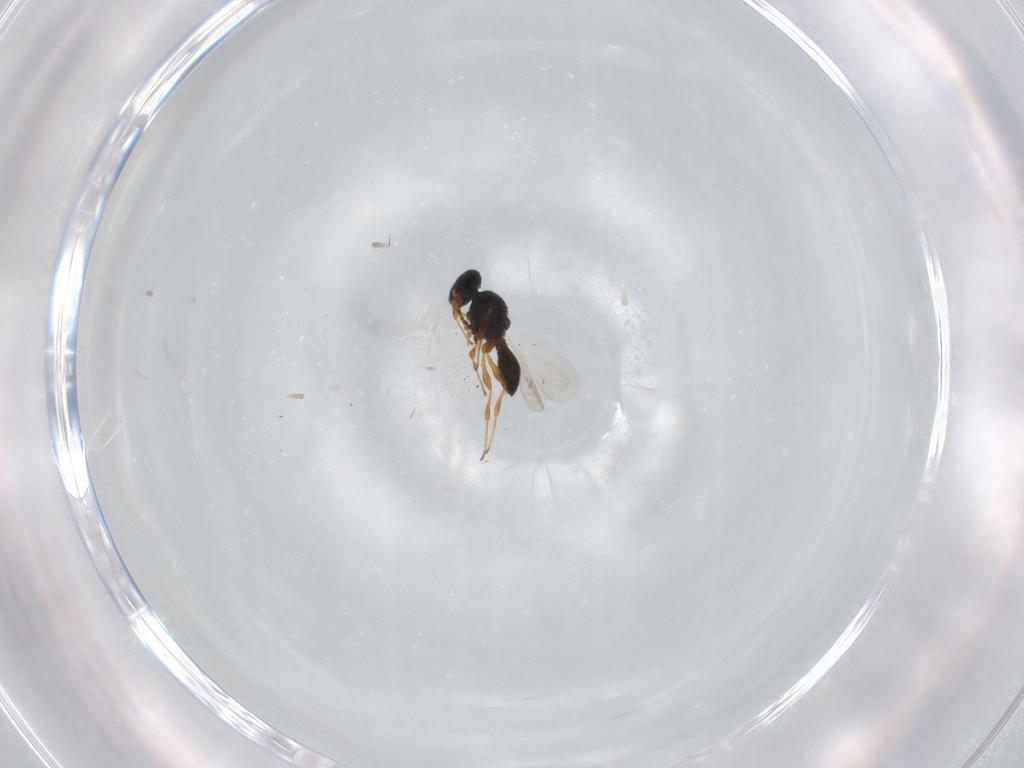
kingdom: Animalia
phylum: Arthropoda
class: Insecta
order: Hymenoptera
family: Platygastridae
